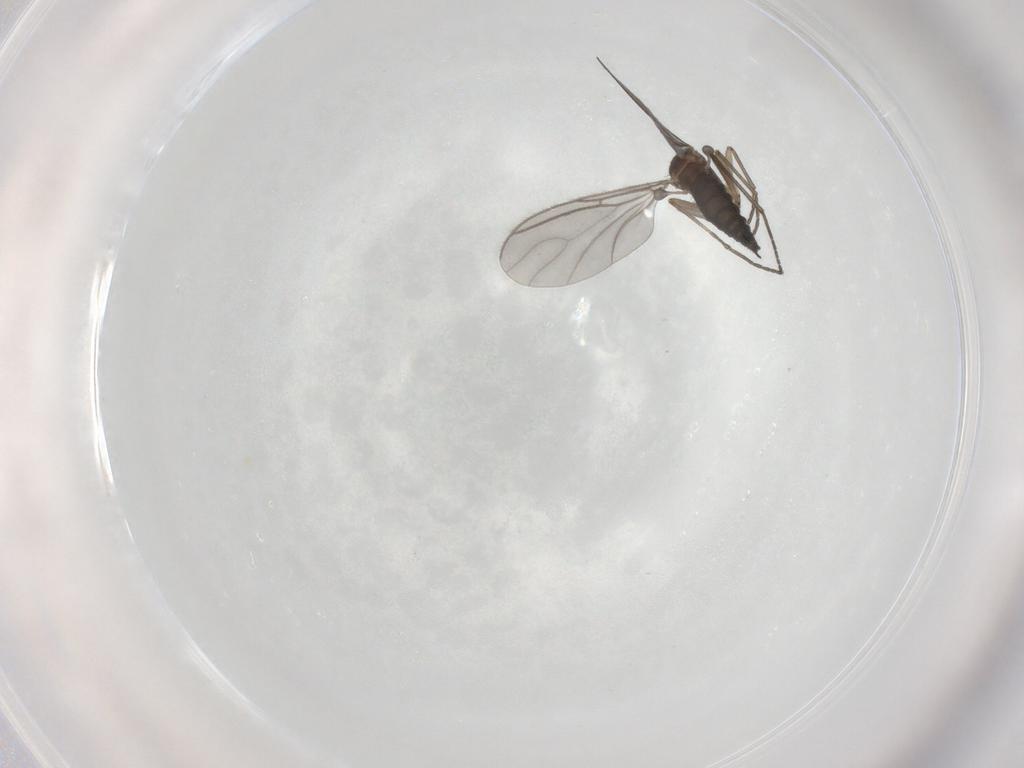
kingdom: Animalia
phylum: Arthropoda
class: Insecta
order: Diptera
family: Sciaridae
